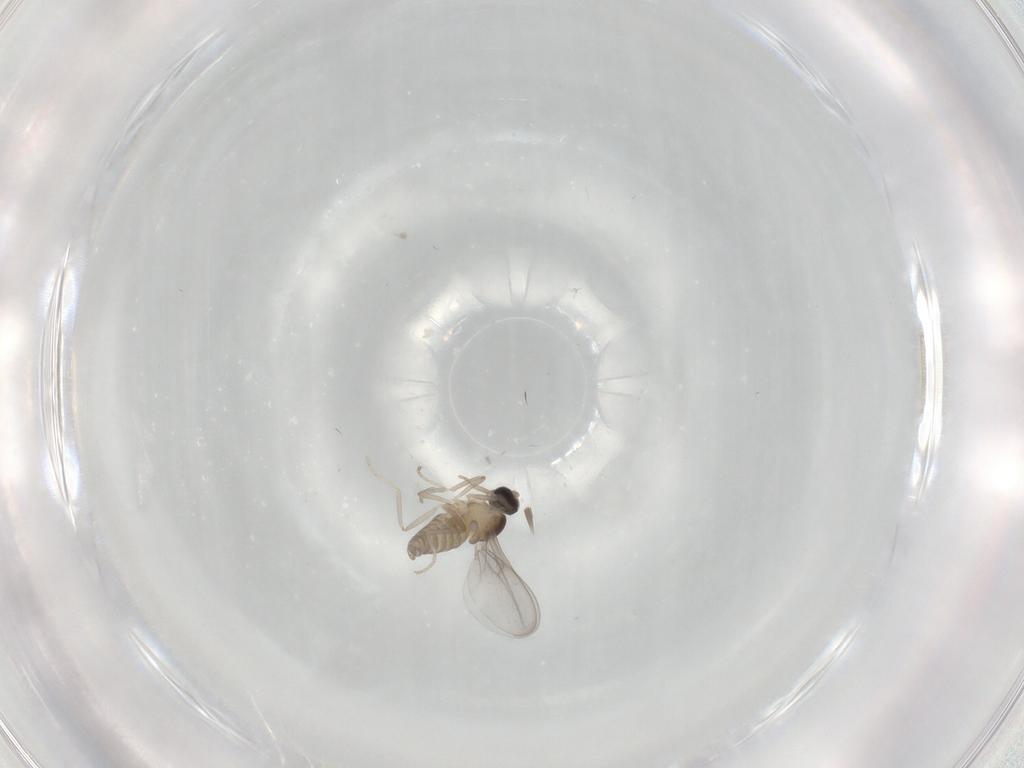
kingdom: Animalia
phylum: Arthropoda
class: Insecta
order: Diptera
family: Cecidomyiidae
